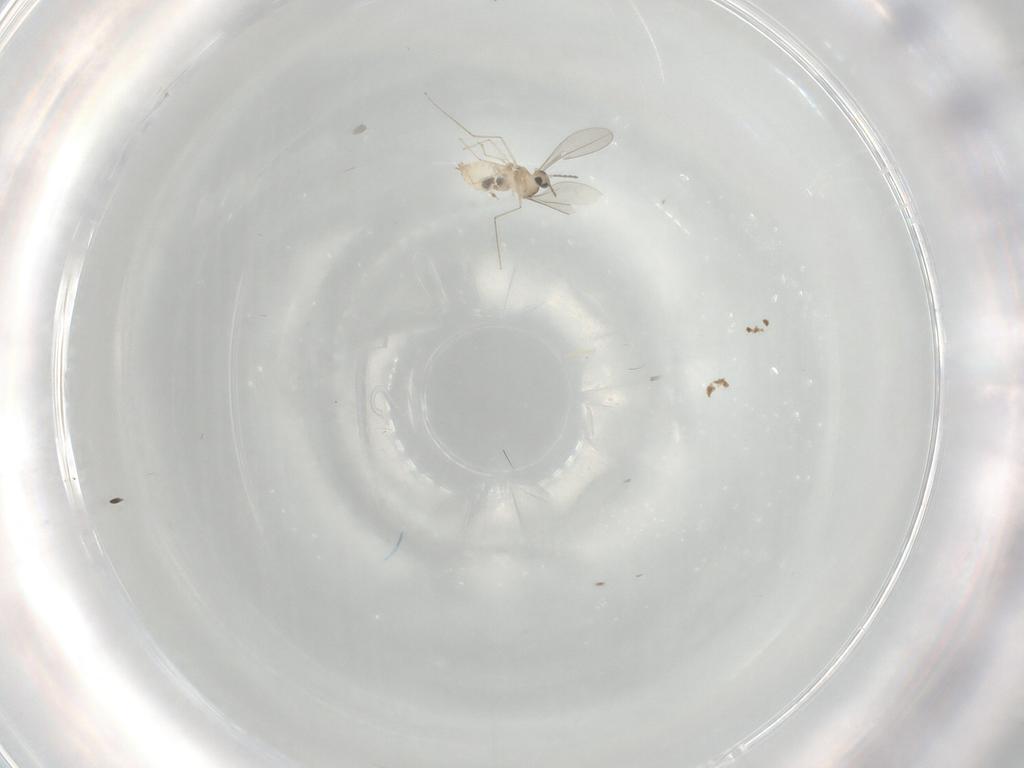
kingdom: Animalia
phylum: Arthropoda
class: Insecta
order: Diptera
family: Cecidomyiidae
